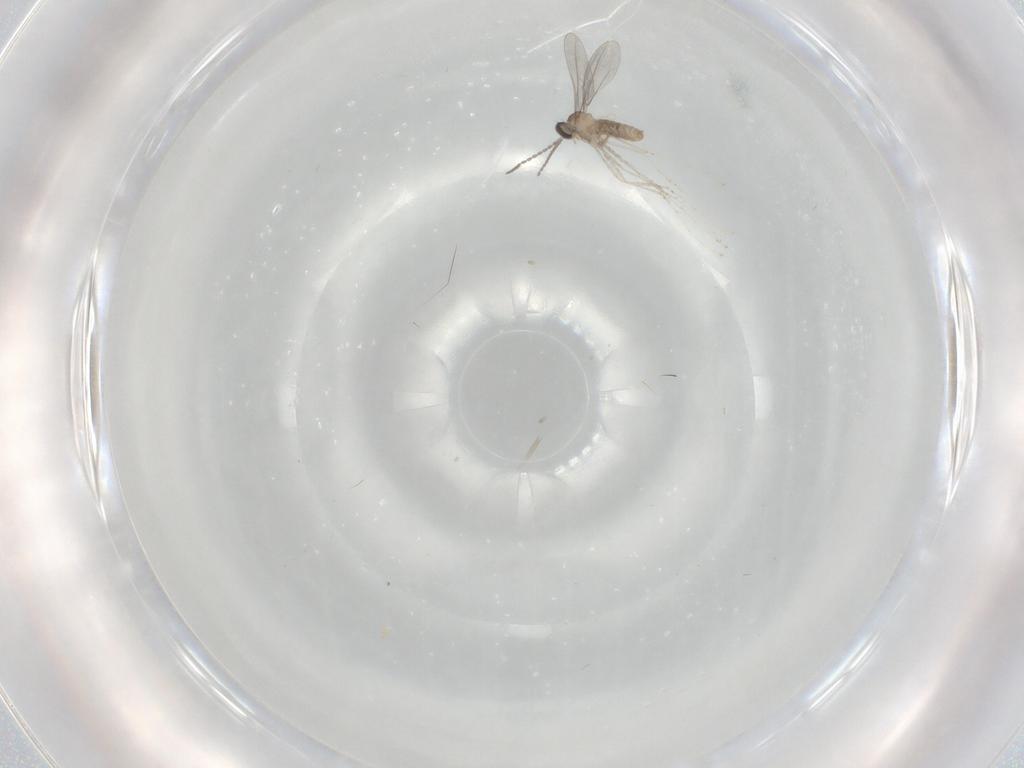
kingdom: Animalia
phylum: Arthropoda
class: Insecta
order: Diptera
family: Cecidomyiidae
